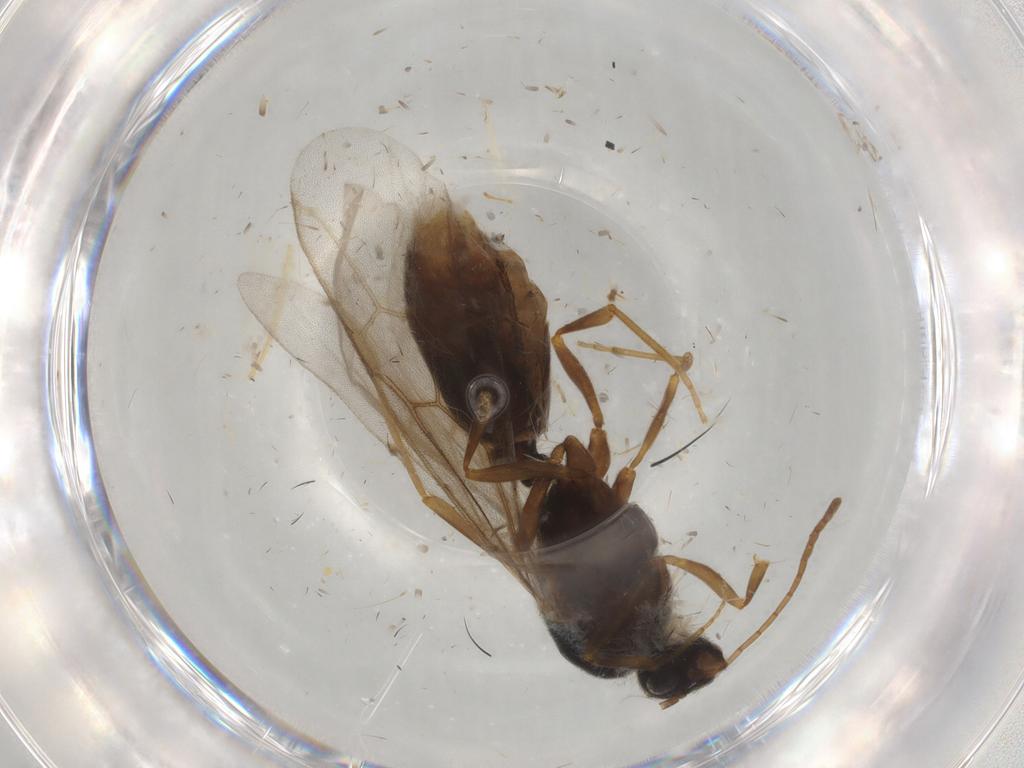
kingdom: Animalia
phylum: Arthropoda
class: Insecta
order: Hymenoptera
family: Formicidae
